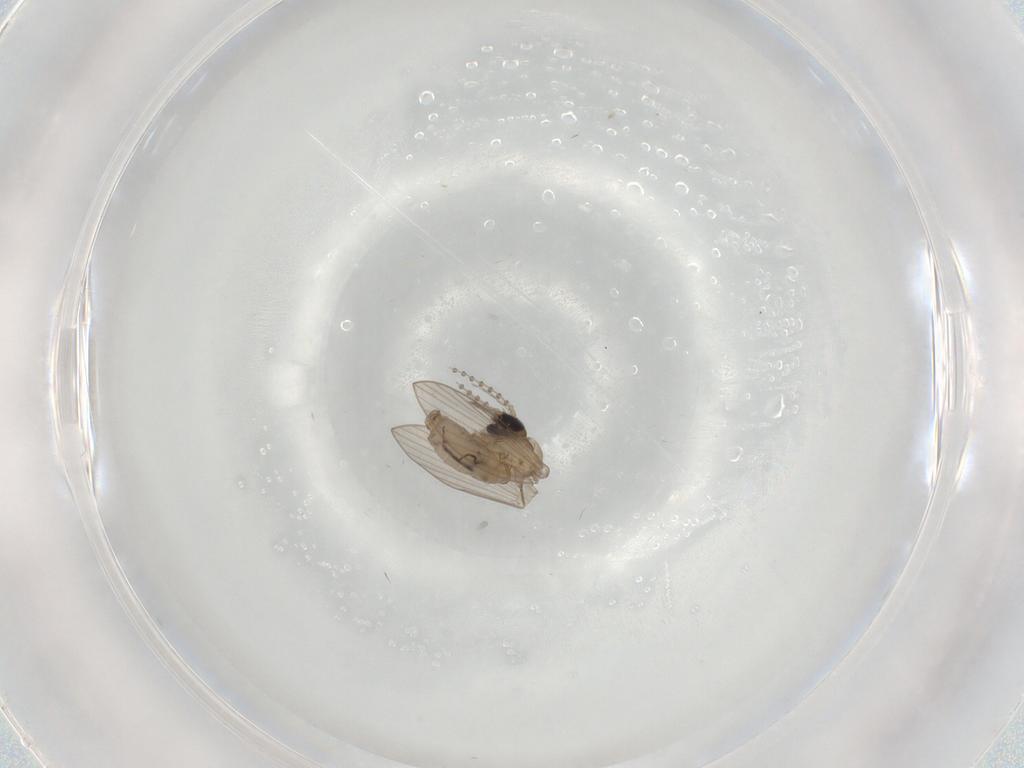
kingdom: Animalia
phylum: Arthropoda
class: Insecta
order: Diptera
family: Psychodidae
